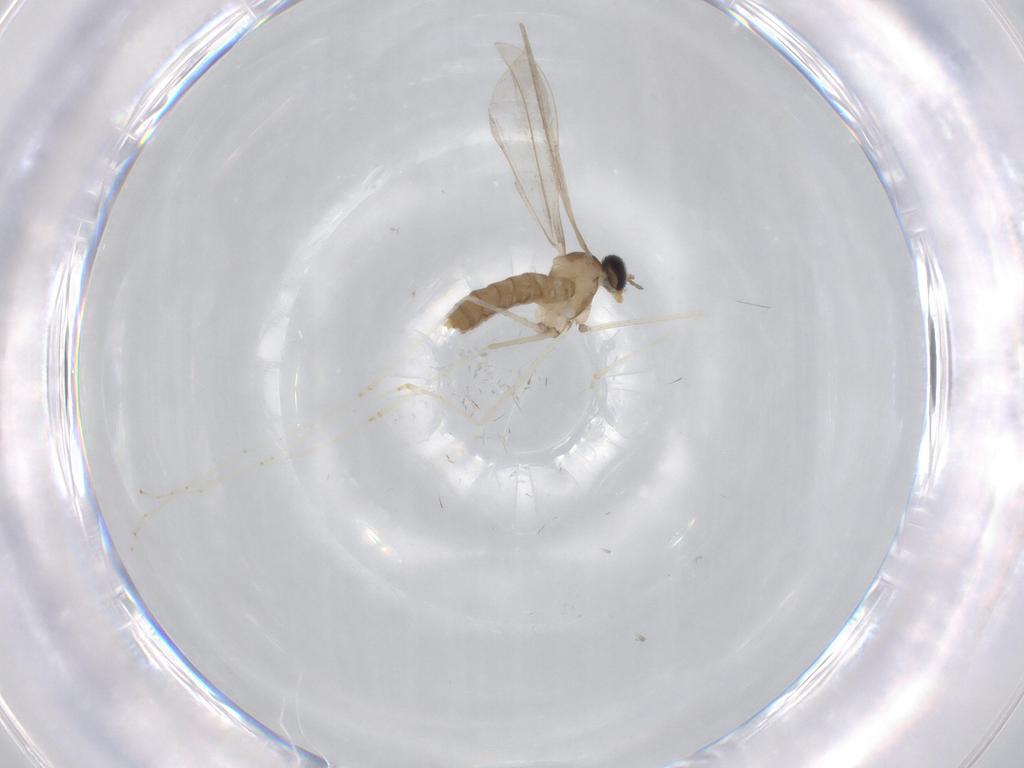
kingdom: Animalia
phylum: Arthropoda
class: Insecta
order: Diptera
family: Cecidomyiidae
